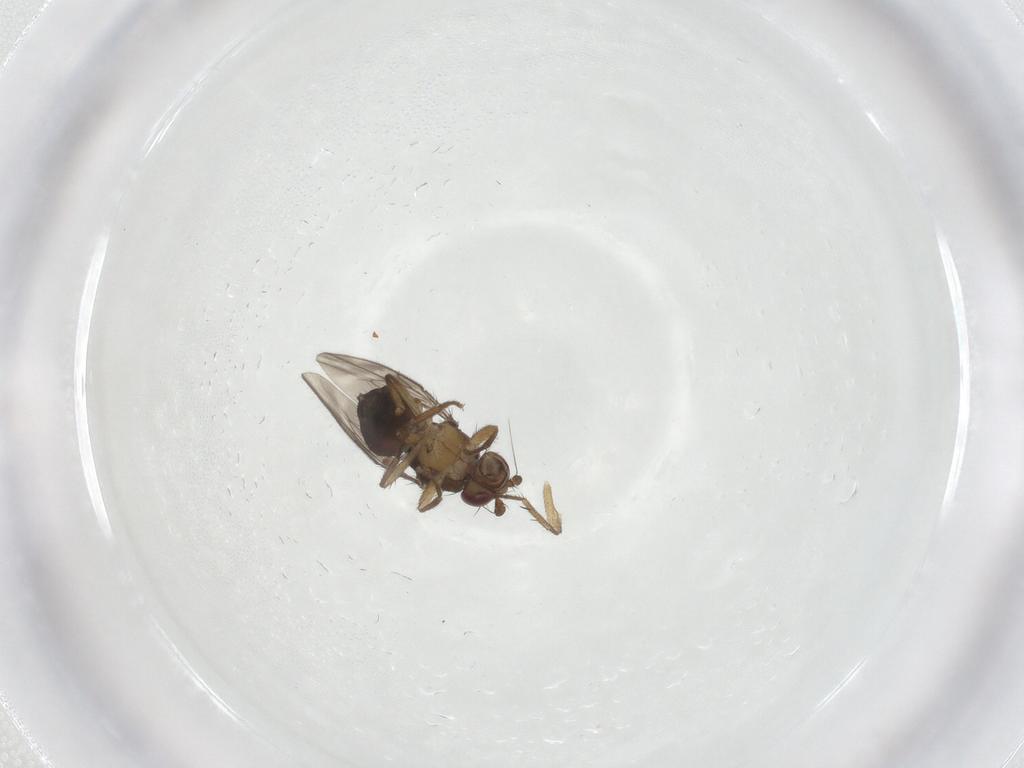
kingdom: Animalia
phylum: Arthropoda
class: Insecta
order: Diptera
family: Sphaeroceridae
